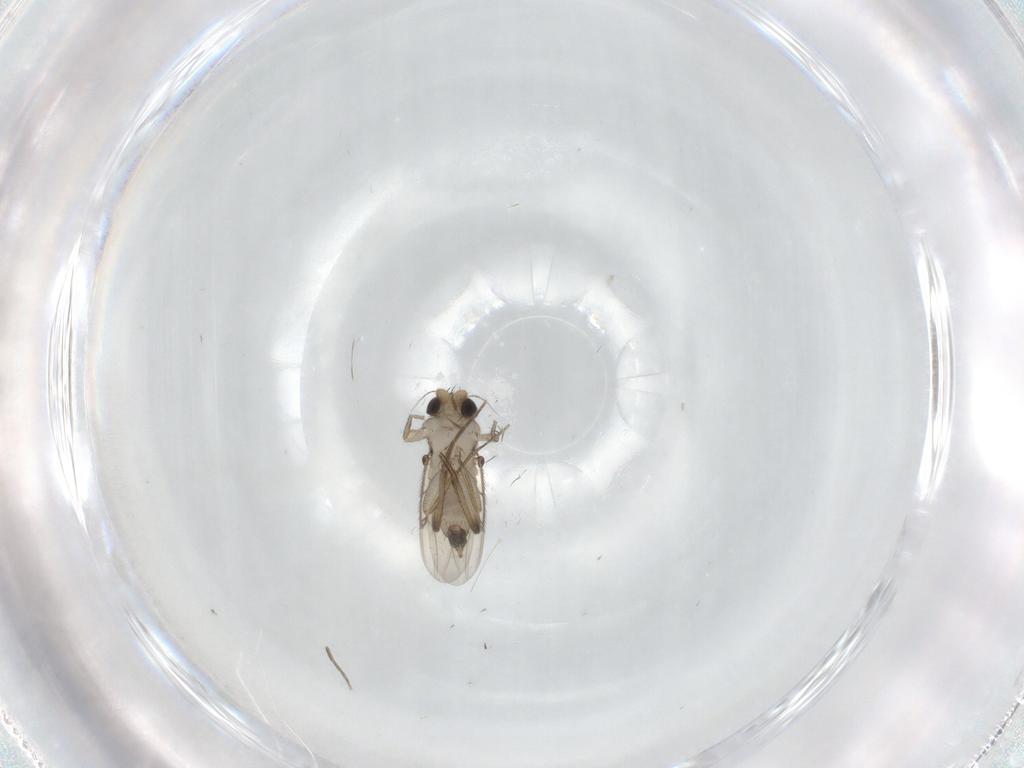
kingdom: Animalia
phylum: Arthropoda
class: Insecta
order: Diptera
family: Phoridae
